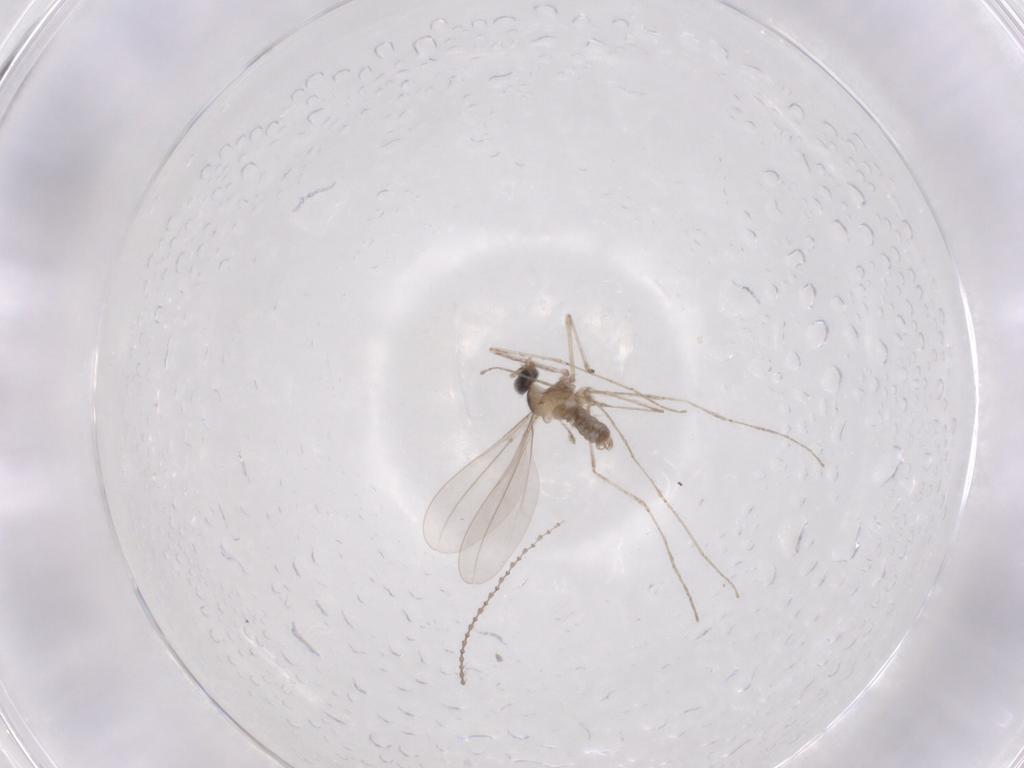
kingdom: Animalia
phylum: Arthropoda
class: Insecta
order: Diptera
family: Cecidomyiidae
